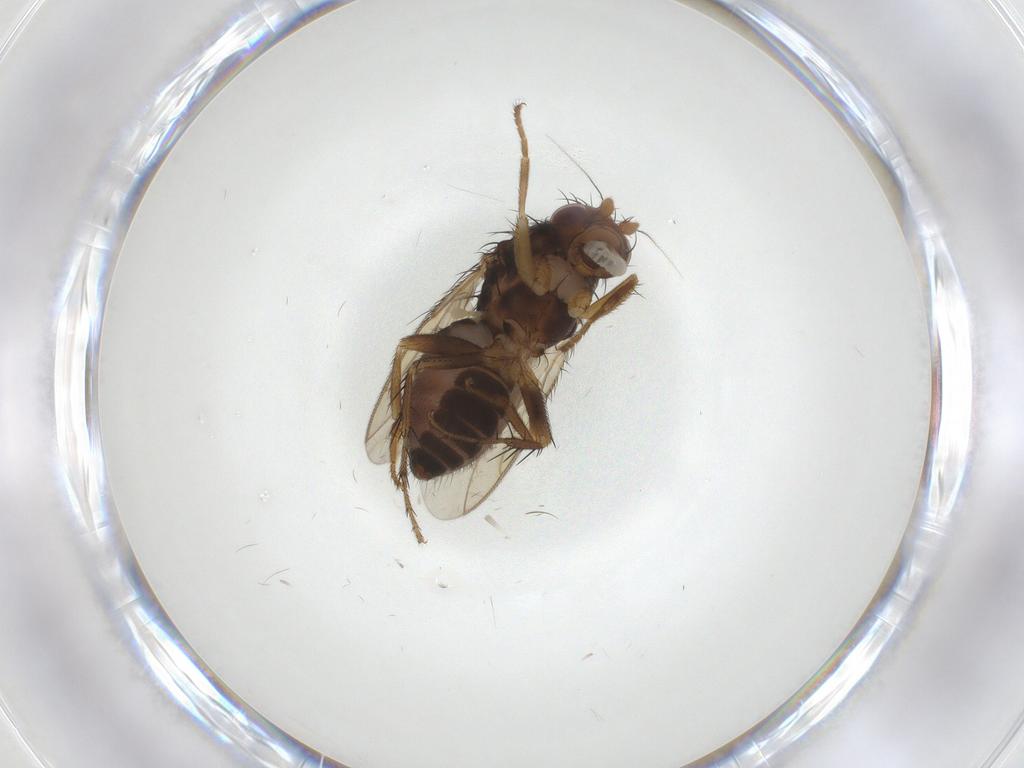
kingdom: Animalia
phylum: Arthropoda
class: Insecta
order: Diptera
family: Sphaeroceridae
